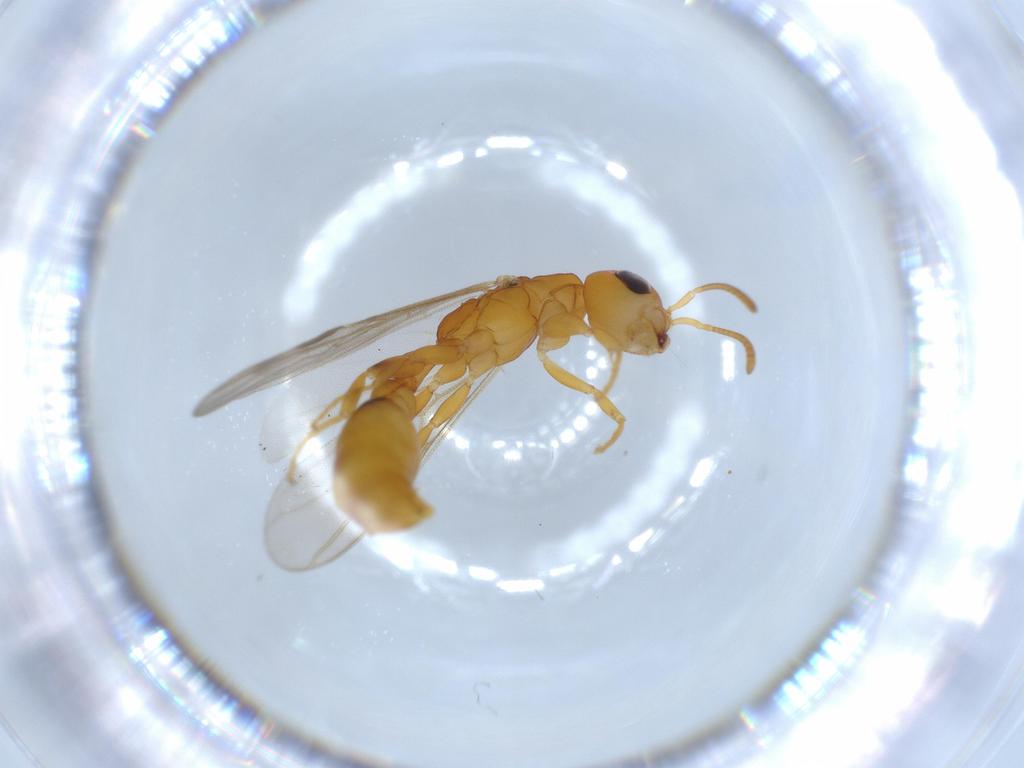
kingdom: Animalia
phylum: Arthropoda
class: Insecta
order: Hymenoptera
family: Formicidae
